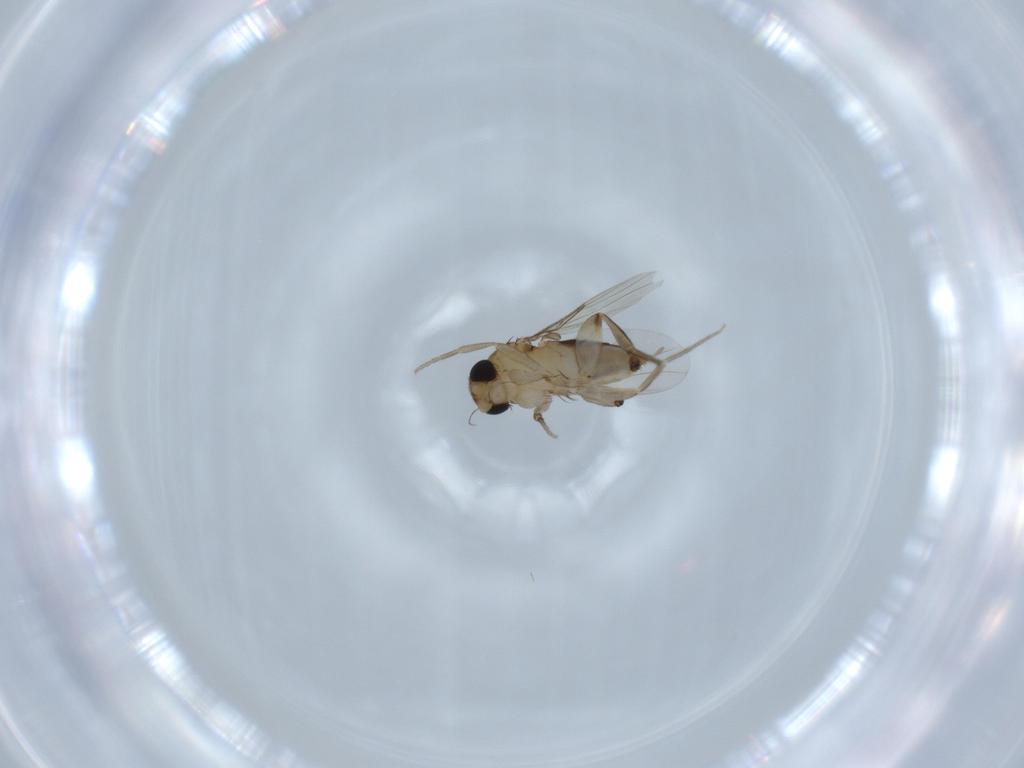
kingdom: Animalia
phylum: Arthropoda
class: Insecta
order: Diptera
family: Phoridae
